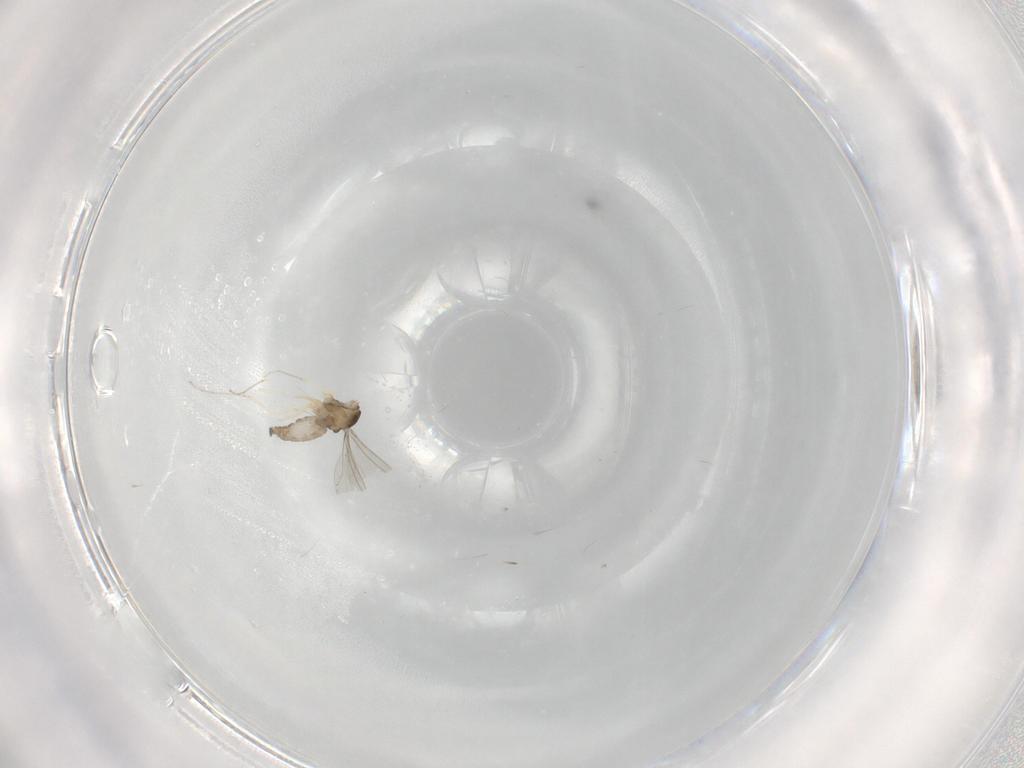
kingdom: Animalia
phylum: Arthropoda
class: Insecta
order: Diptera
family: Cecidomyiidae
